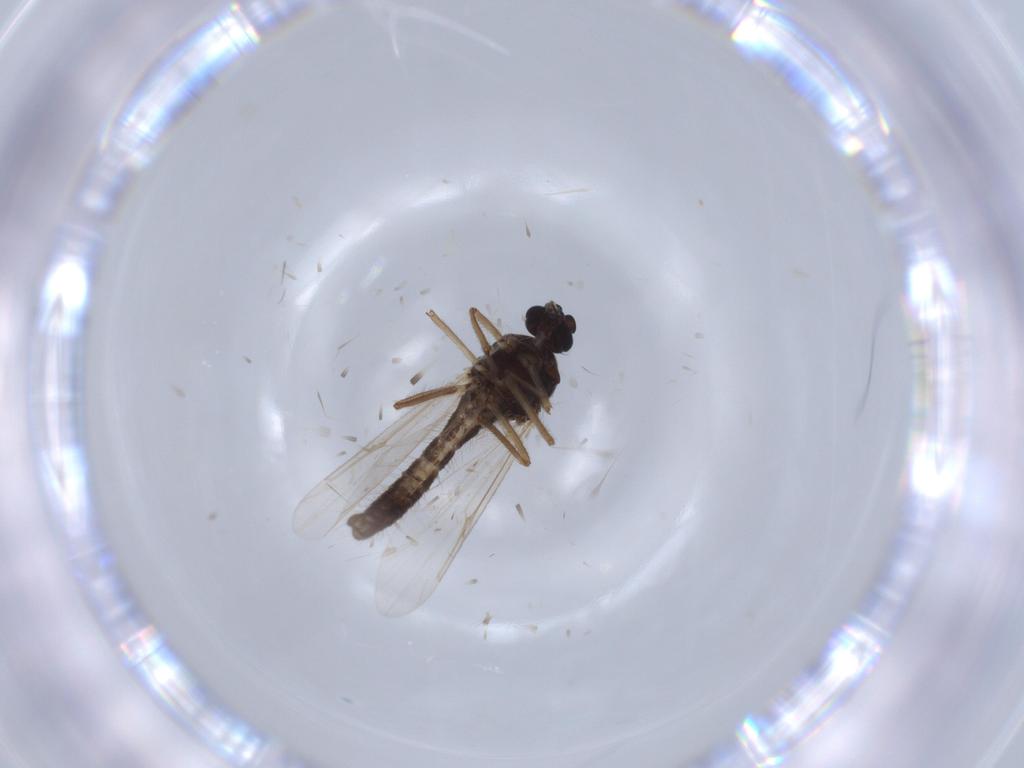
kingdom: Animalia
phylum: Arthropoda
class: Insecta
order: Diptera
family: Ceratopogonidae
